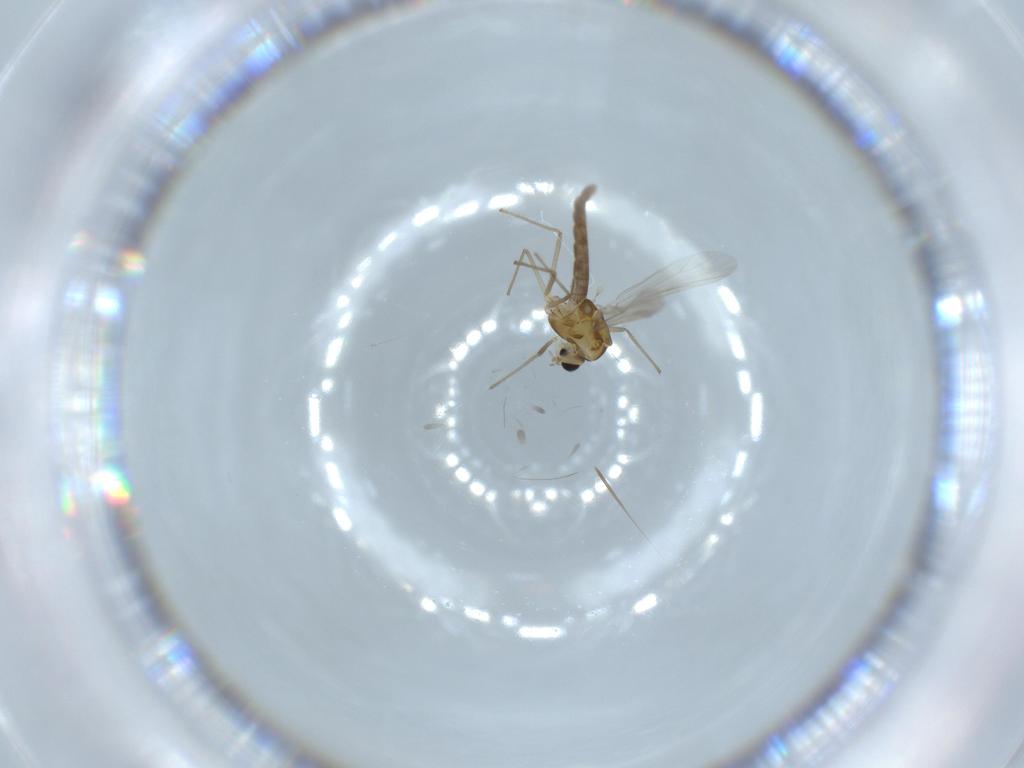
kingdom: Animalia
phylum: Arthropoda
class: Insecta
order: Diptera
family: Chironomidae
